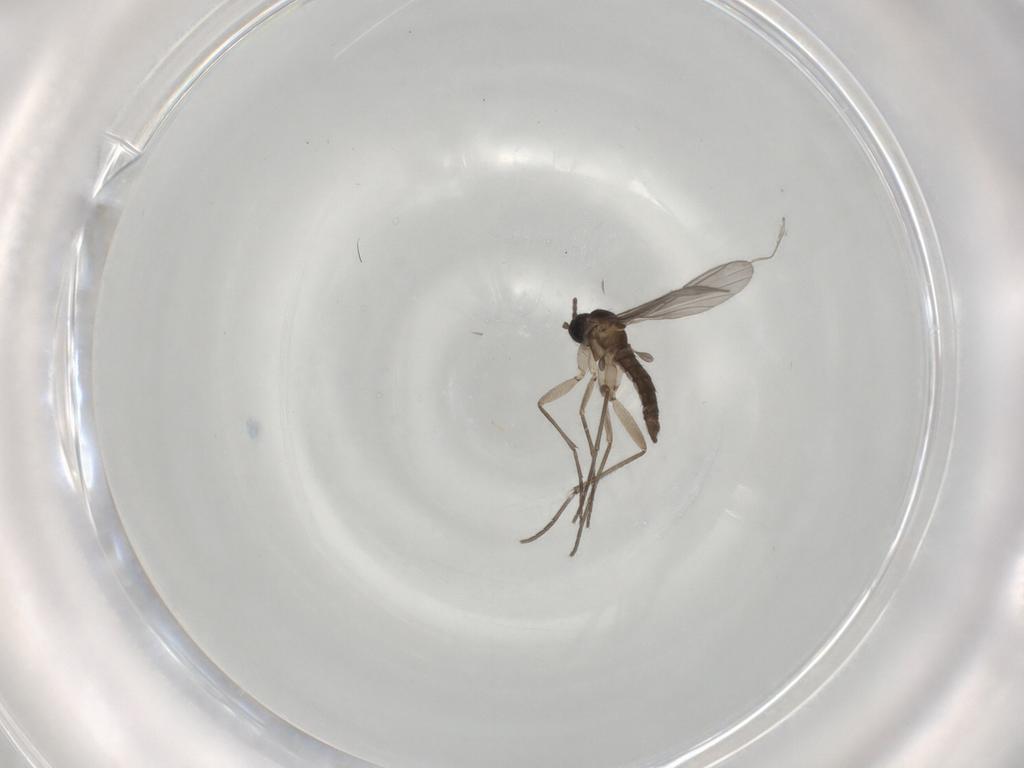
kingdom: Animalia
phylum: Arthropoda
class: Insecta
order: Diptera
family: Sciaridae
